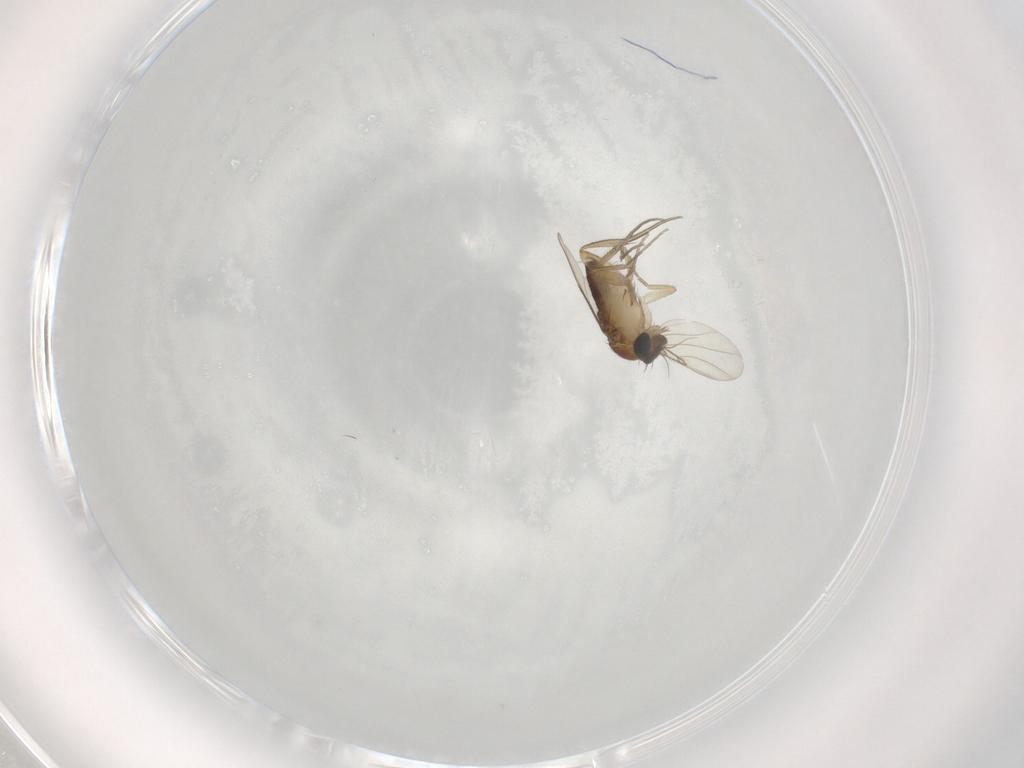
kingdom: Animalia
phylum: Arthropoda
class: Insecta
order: Diptera
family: Phoridae
